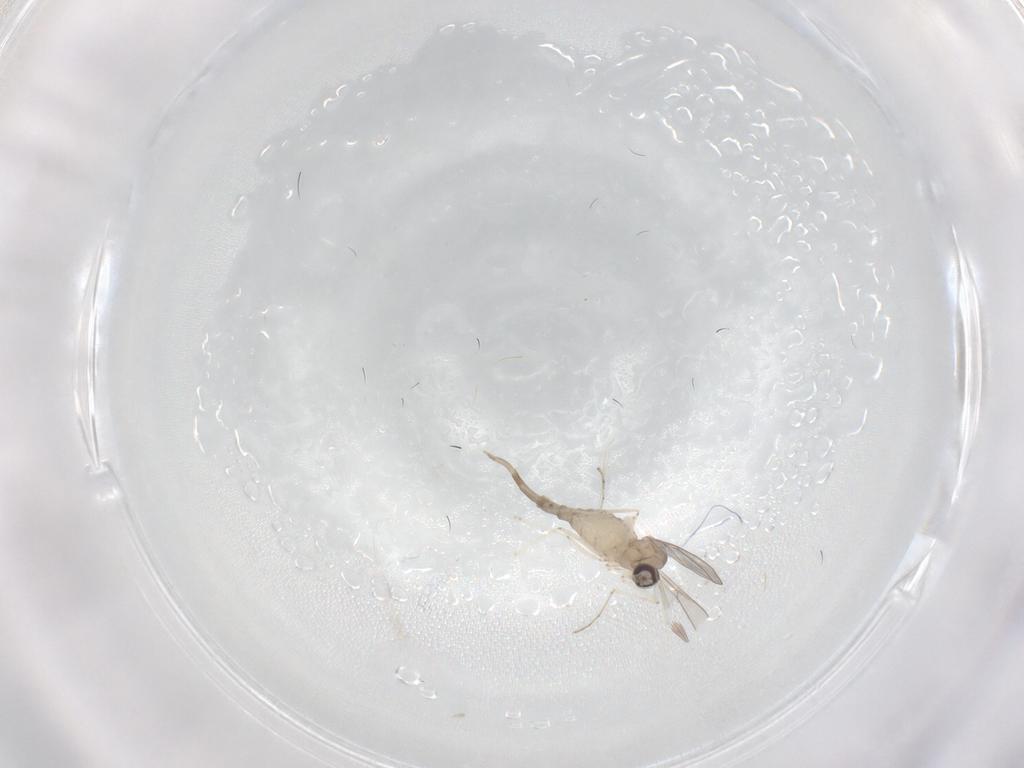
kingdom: Animalia
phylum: Arthropoda
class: Insecta
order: Diptera
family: Cecidomyiidae
